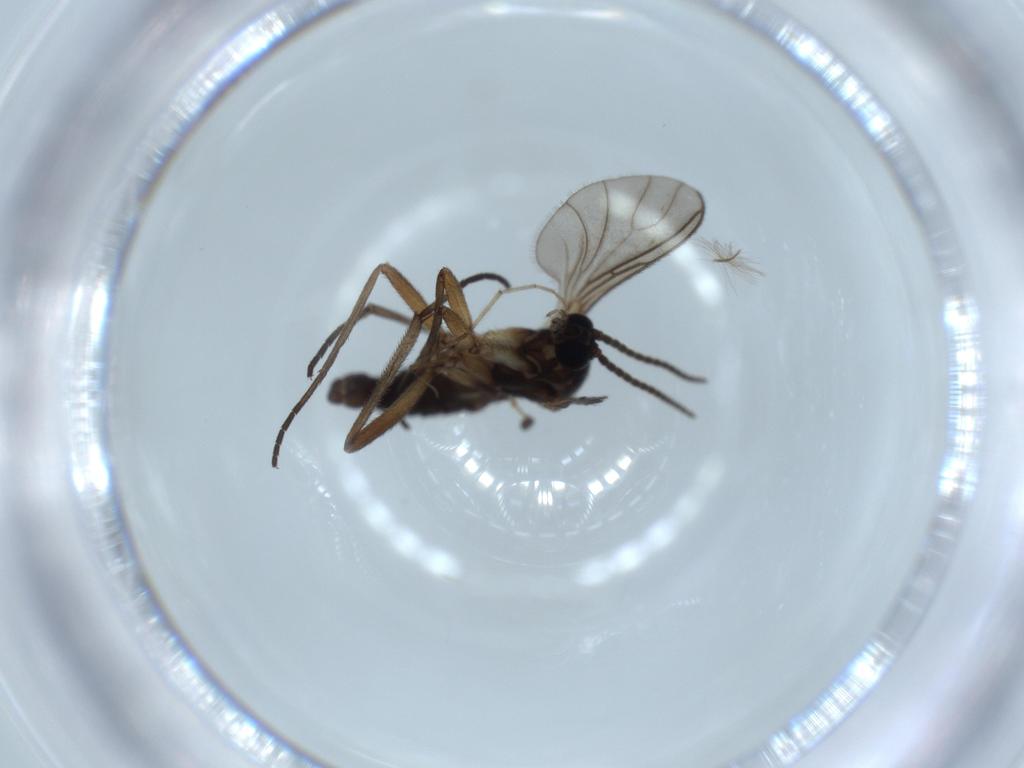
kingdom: Animalia
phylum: Arthropoda
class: Insecta
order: Diptera
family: Sciaridae
